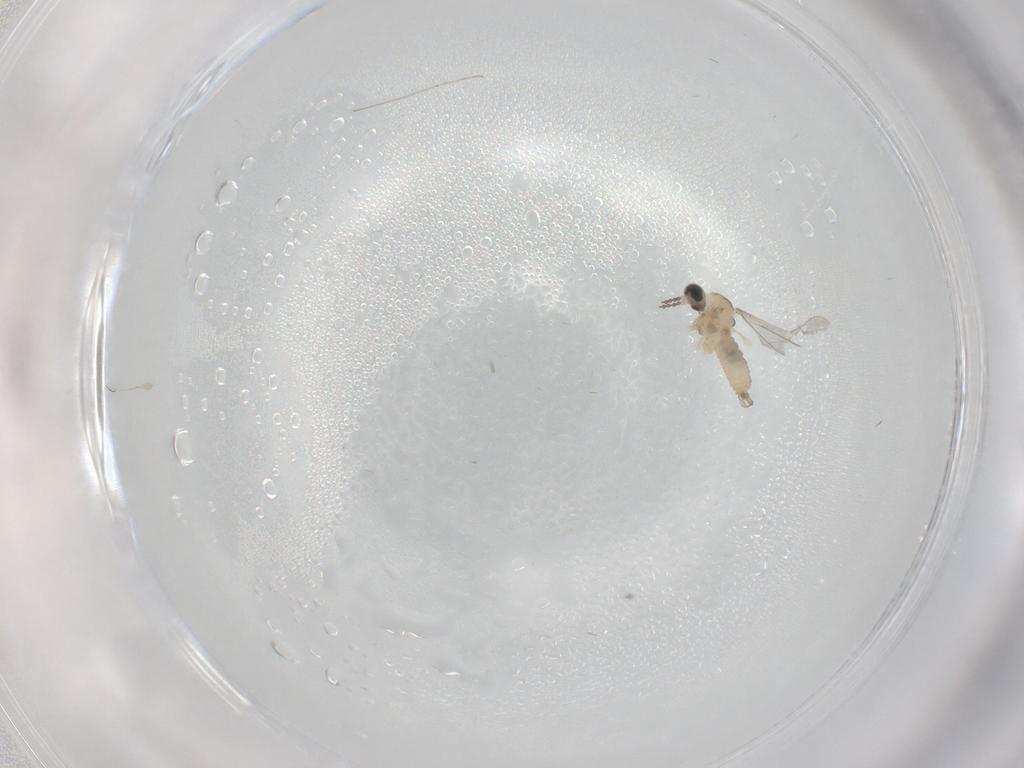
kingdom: Animalia
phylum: Arthropoda
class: Insecta
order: Diptera
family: Cecidomyiidae
